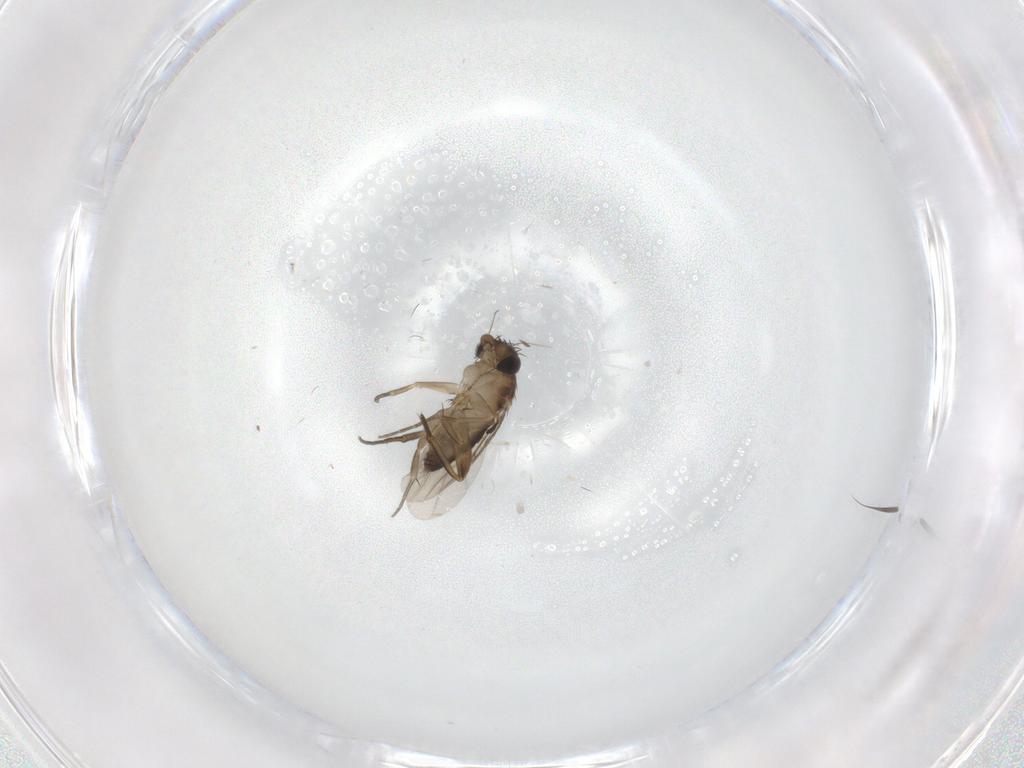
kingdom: Animalia
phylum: Arthropoda
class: Insecta
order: Diptera
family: Phoridae
